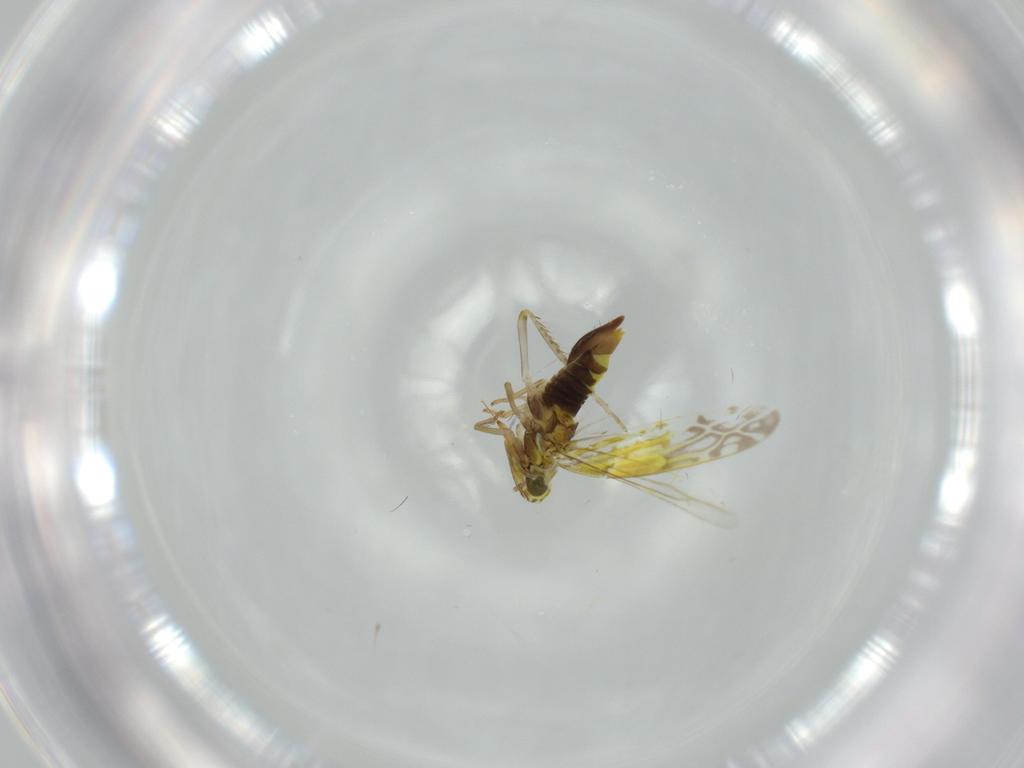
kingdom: Animalia
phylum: Arthropoda
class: Insecta
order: Hemiptera
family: Cicadellidae
